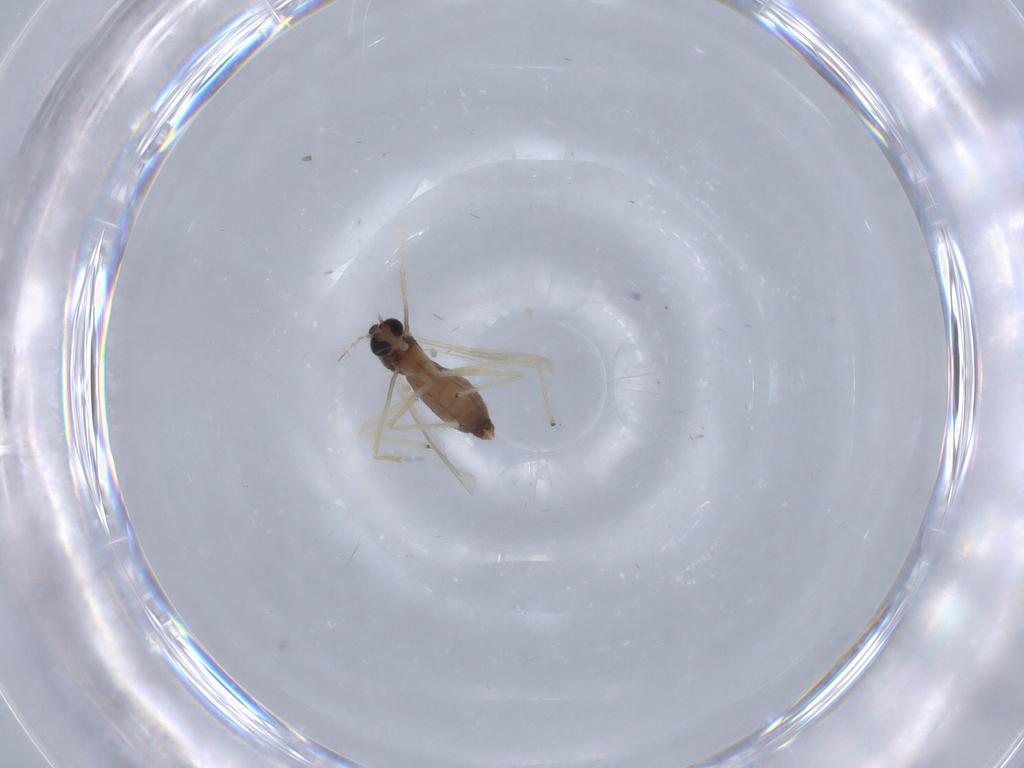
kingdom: Animalia
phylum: Arthropoda
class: Insecta
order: Diptera
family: Chironomidae
